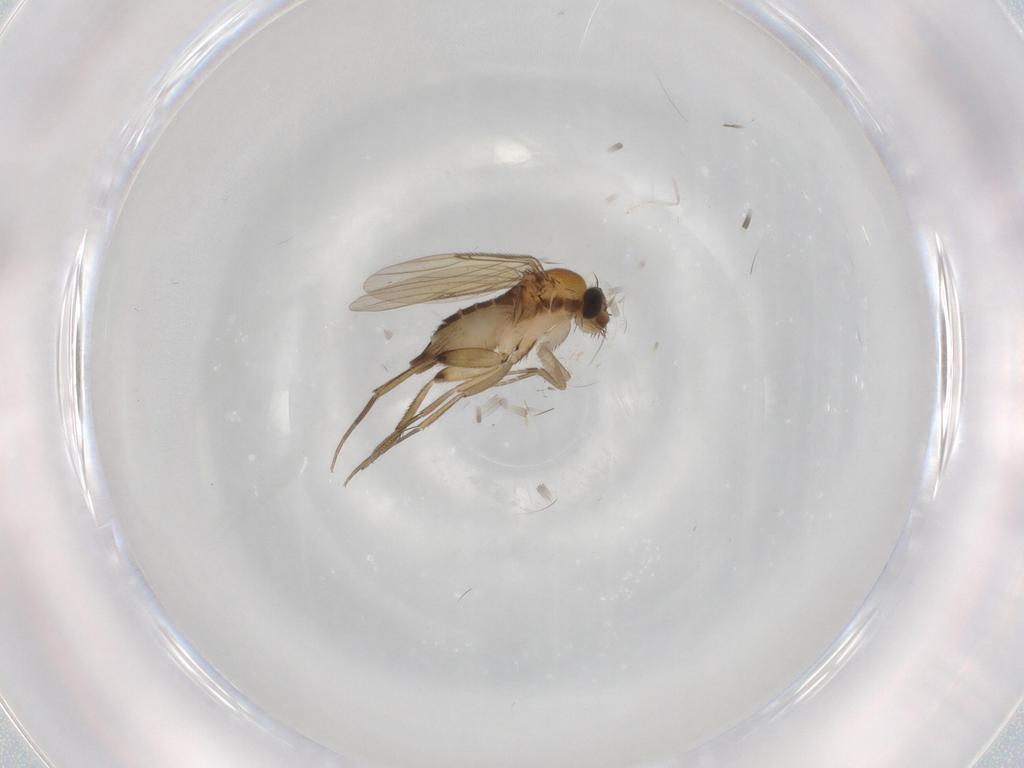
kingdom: Animalia
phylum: Arthropoda
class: Insecta
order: Diptera
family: Phoridae
